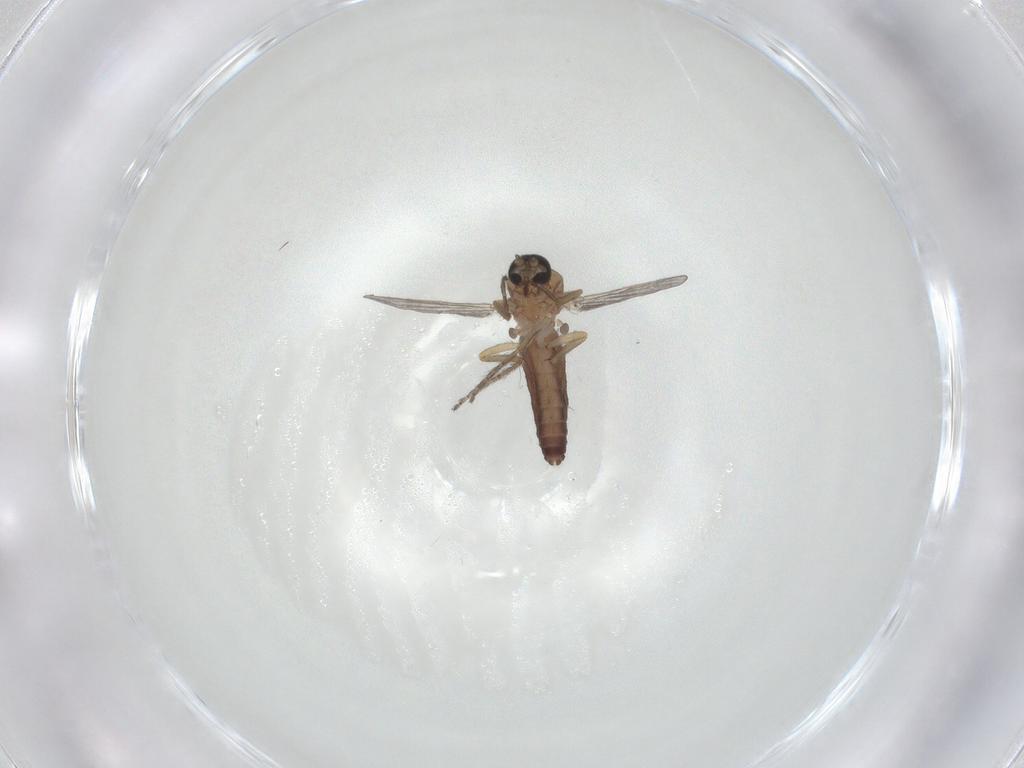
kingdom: Animalia
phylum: Arthropoda
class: Insecta
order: Diptera
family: Ceratopogonidae
